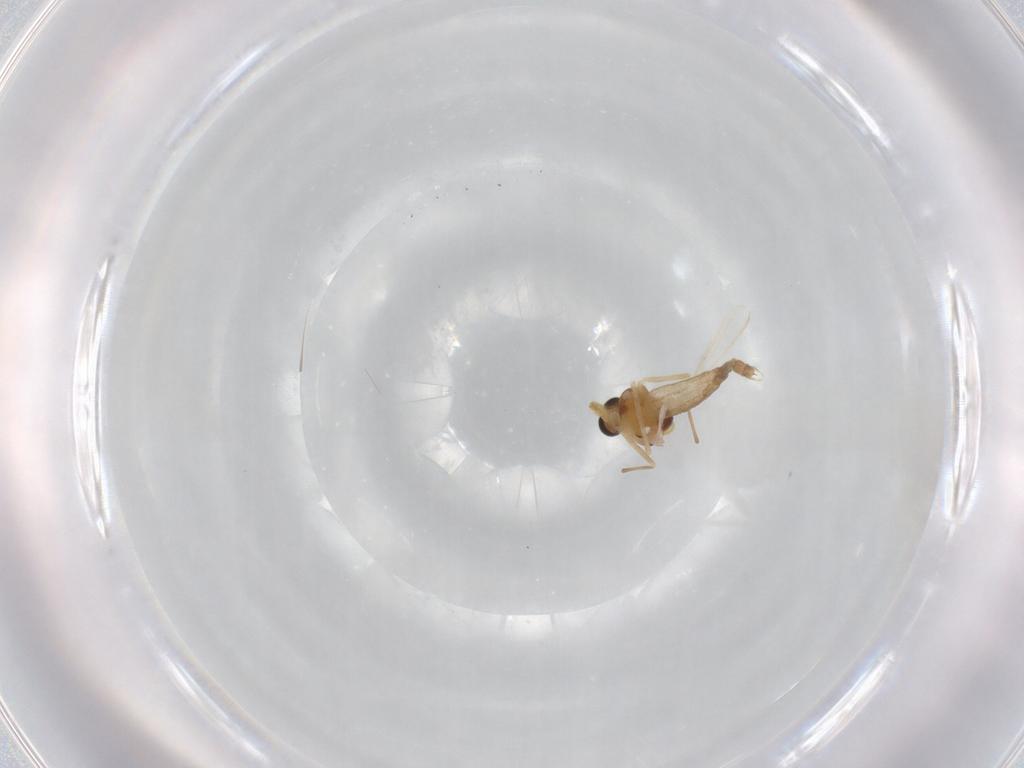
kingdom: Animalia
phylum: Arthropoda
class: Insecta
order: Diptera
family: Chironomidae
